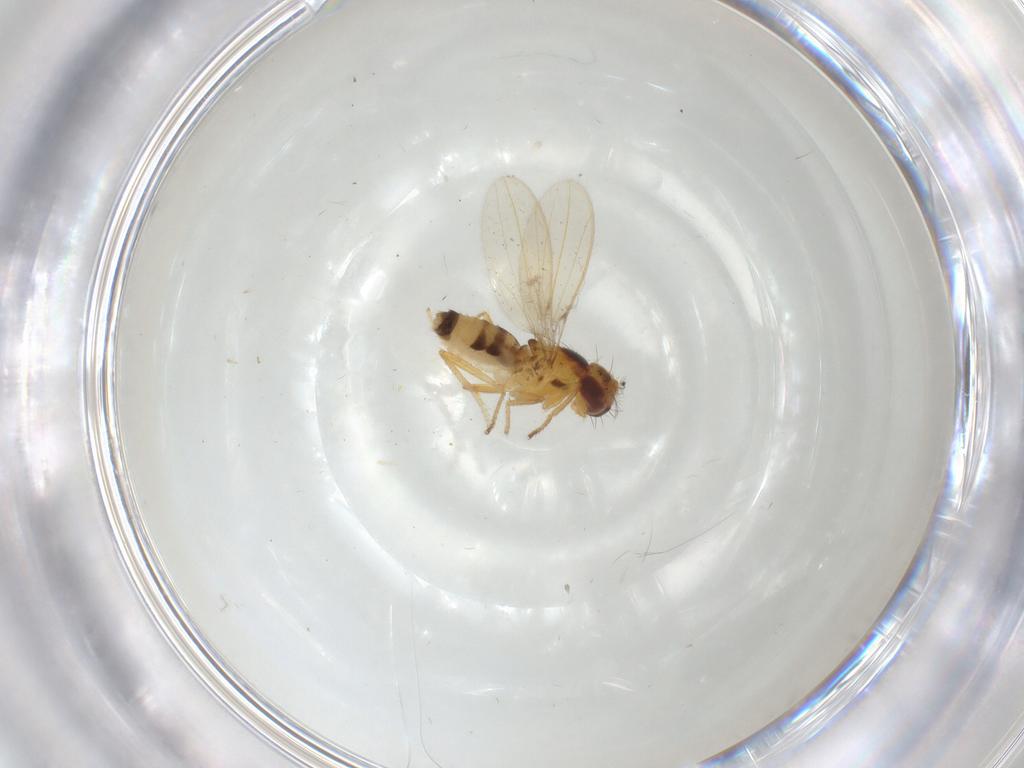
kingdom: Animalia
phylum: Arthropoda
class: Insecta
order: Diptera
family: Periscelididae
